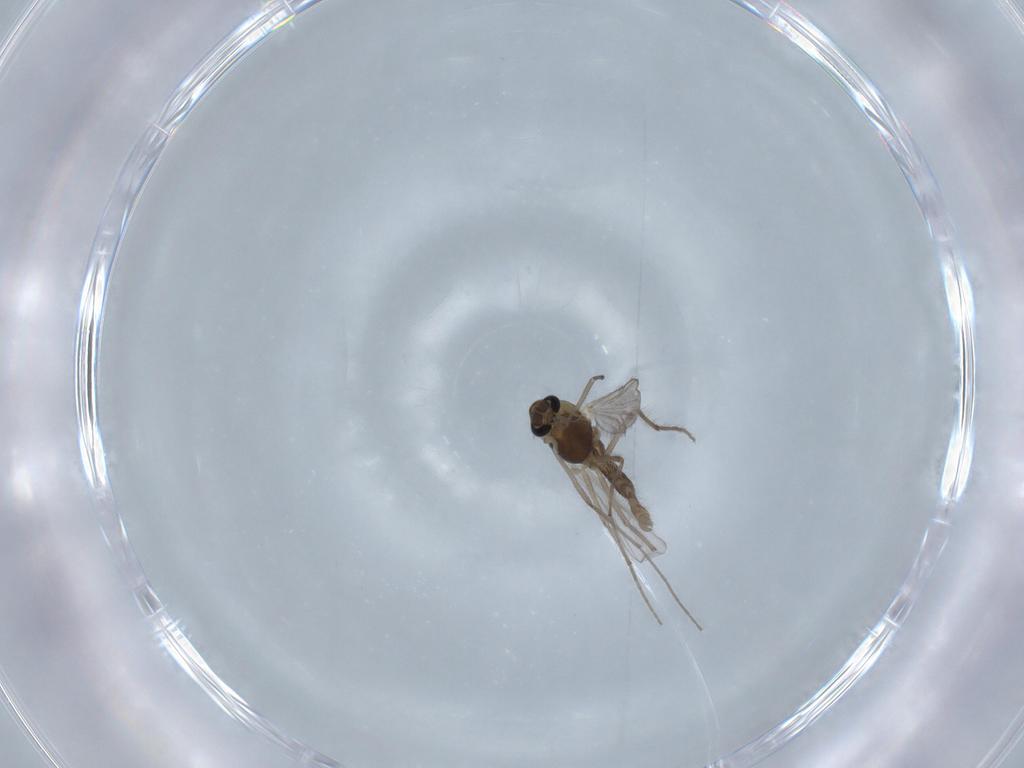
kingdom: Animalia
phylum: Arthropoda
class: Insecta
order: Diptera
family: Chironomidae
